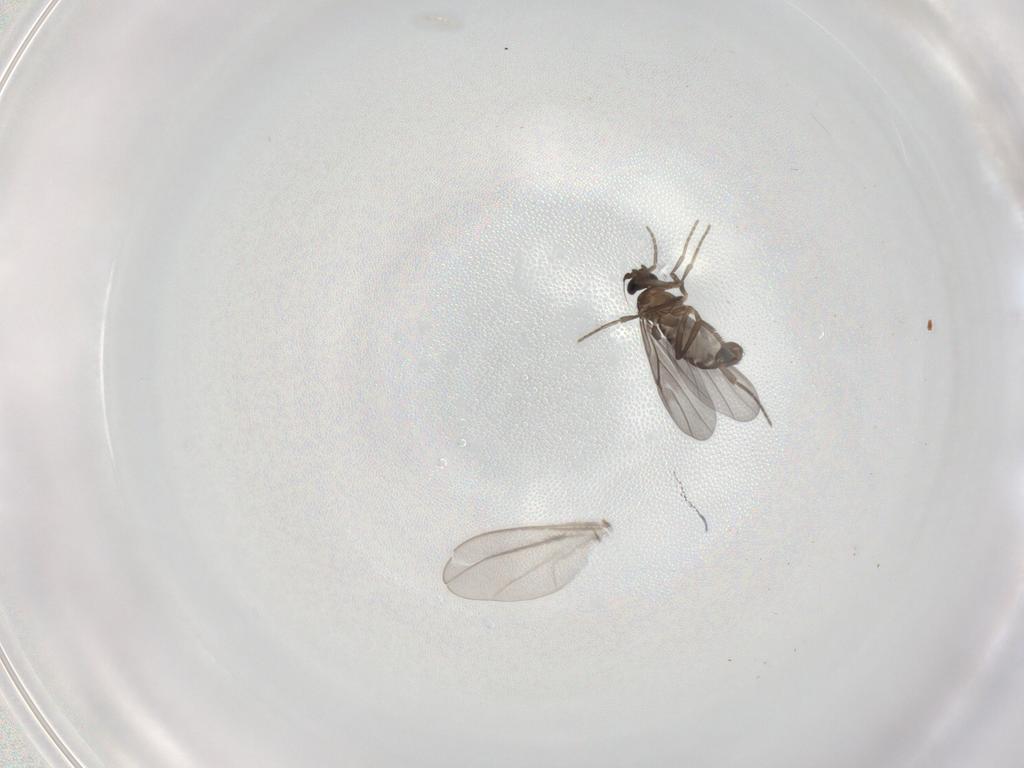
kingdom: Animalia
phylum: Arthropoda
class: Insecta
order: Diptera
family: Phoridae
